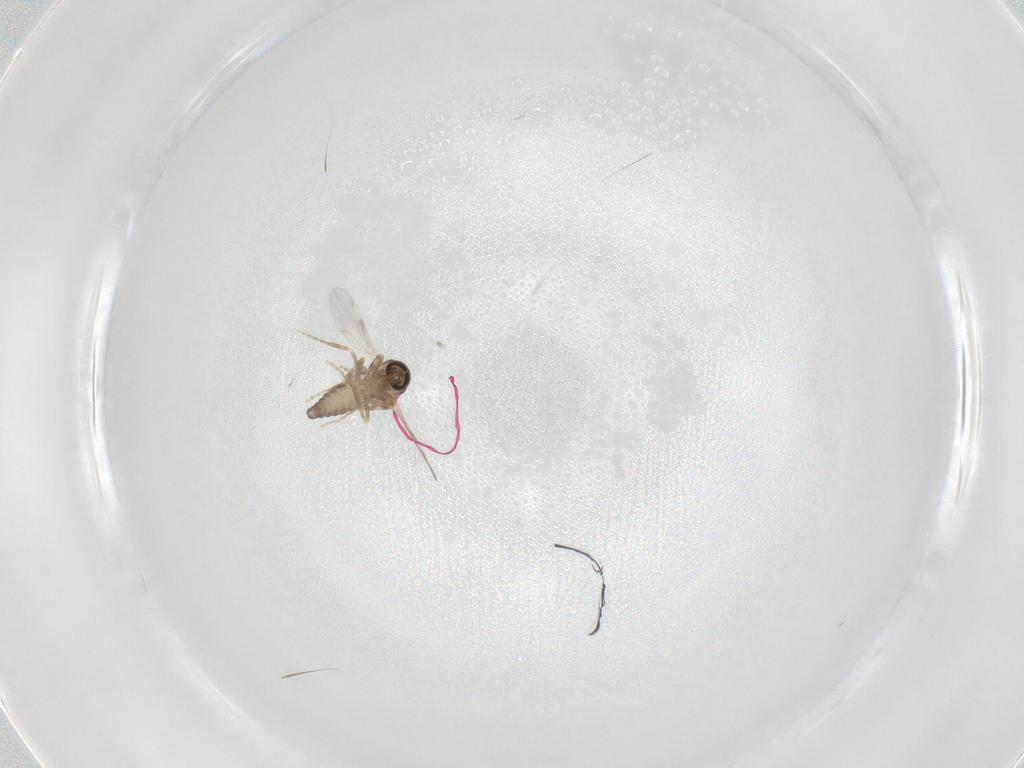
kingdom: Animalia
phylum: Arthropoda
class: Insecta
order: Diptera
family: Ceratopogonidae
